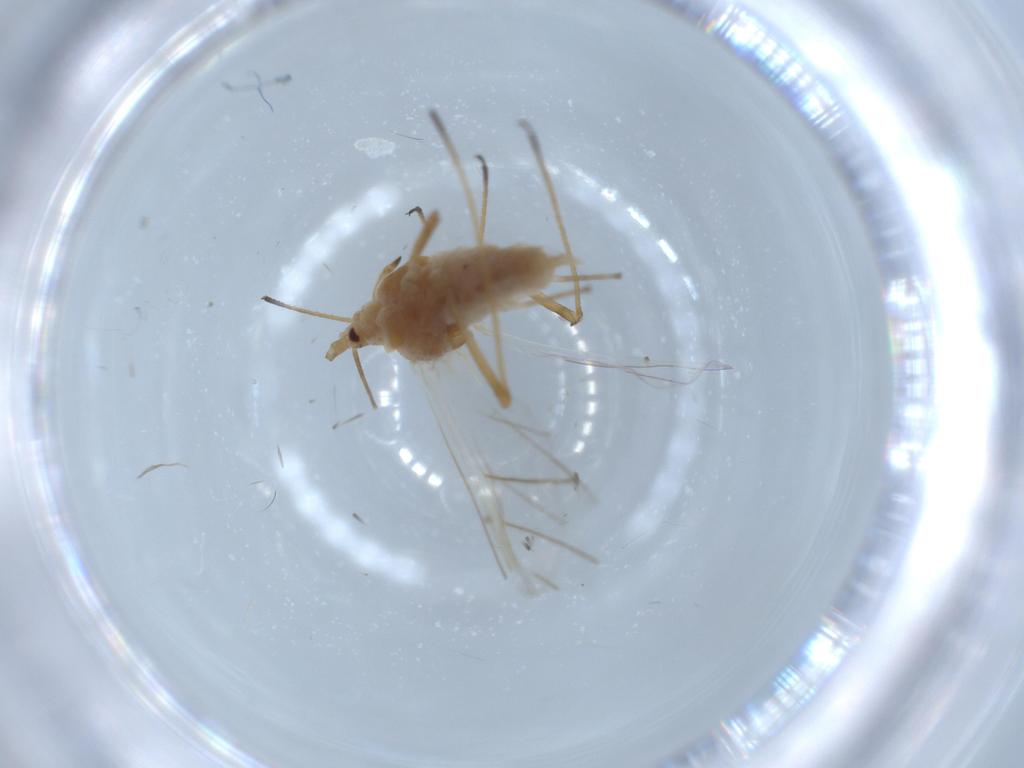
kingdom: Animalia
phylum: Arthropoda
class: Insecta
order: Hemiptera
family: Aphididae
